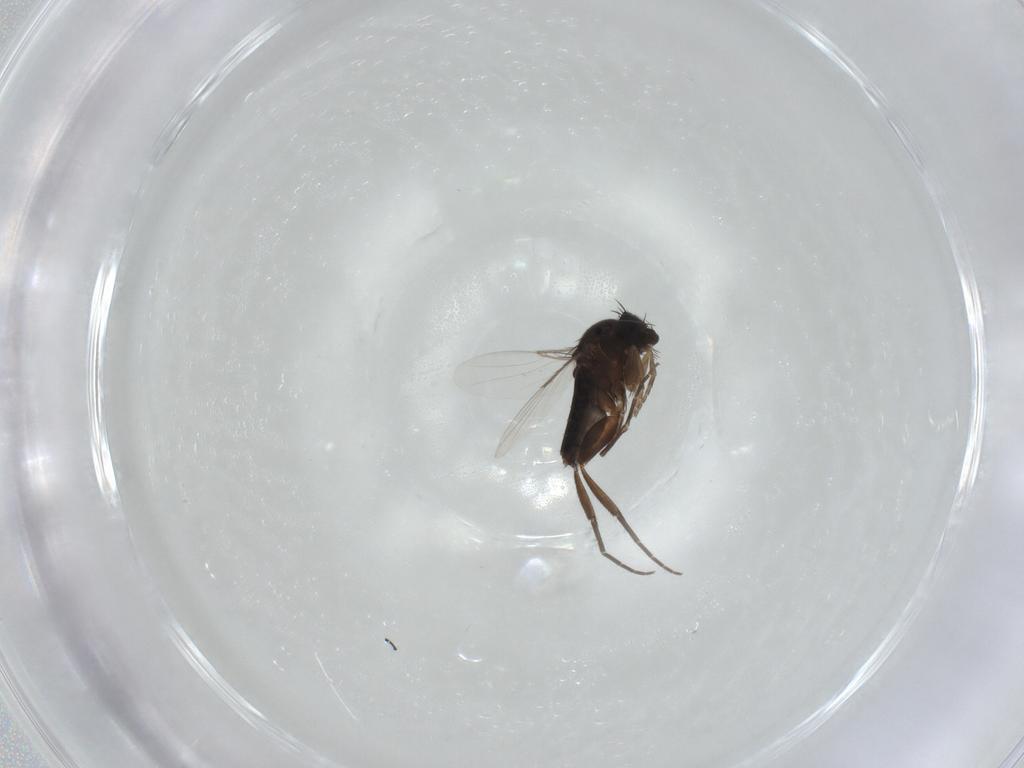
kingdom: Animalia
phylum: Arthropoda
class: Insecta
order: Diptera
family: Phoridae
